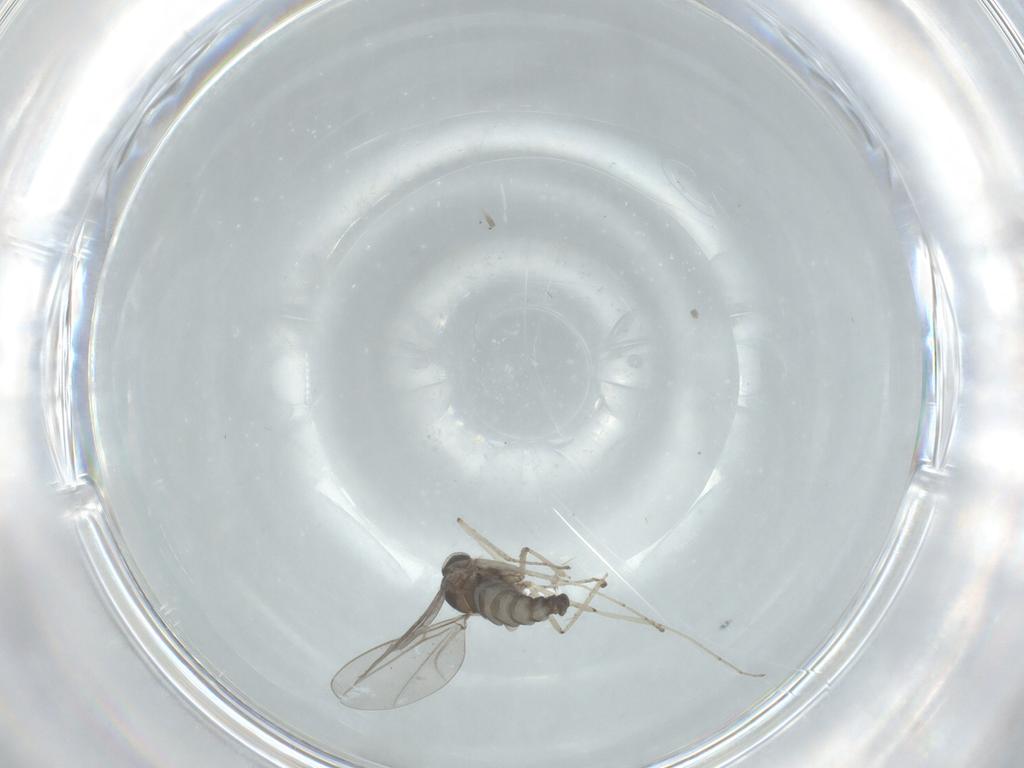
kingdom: Animalia
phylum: Arthropoda
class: Insecta
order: Diptera
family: Cecidomyiidae
